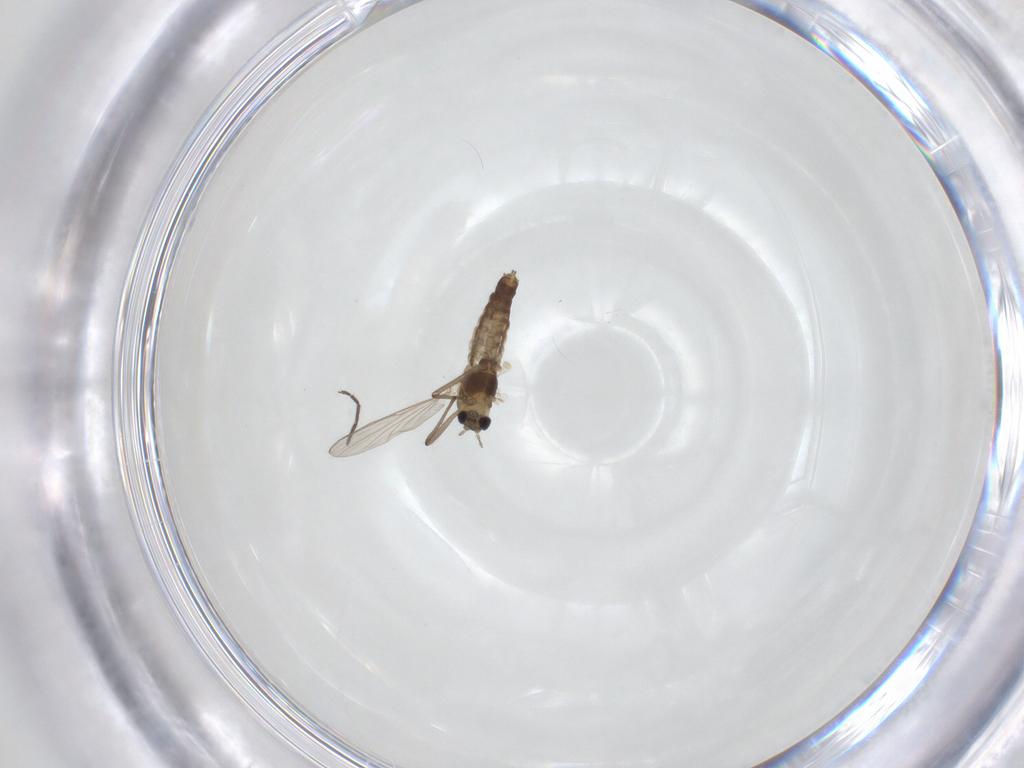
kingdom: Animalia
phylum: Arthropoda
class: Insecta
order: Diptera
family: Chironomidae
